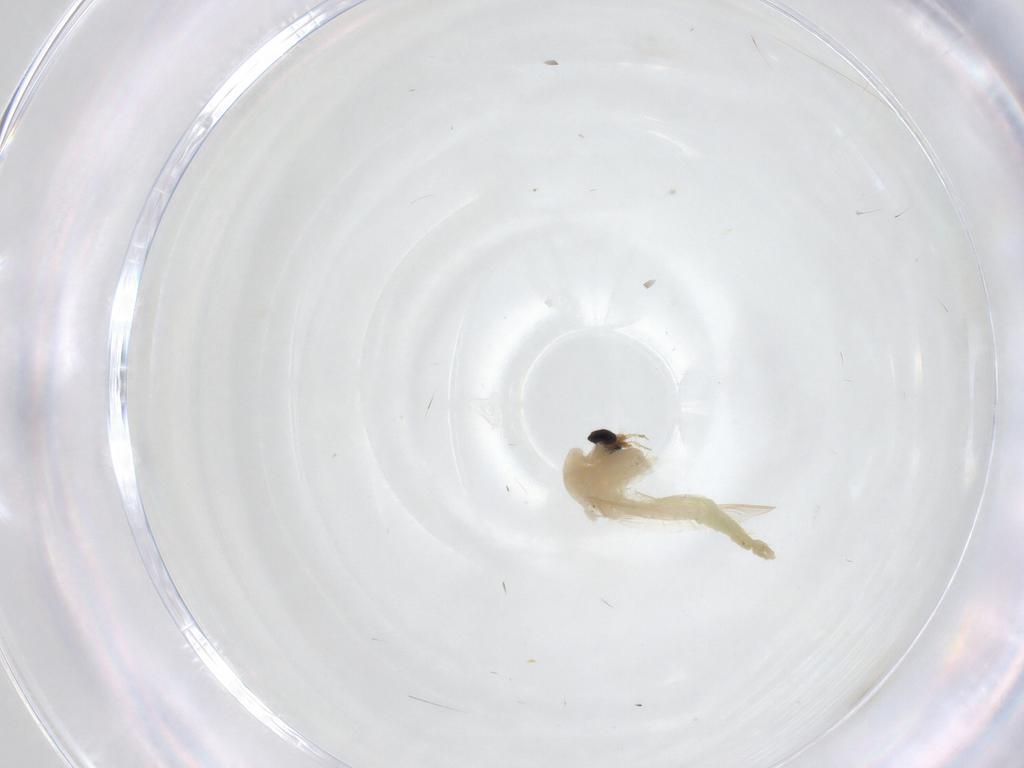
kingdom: Animalia
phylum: Arthropoda
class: Insecta
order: Diptera
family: Chironomidae
